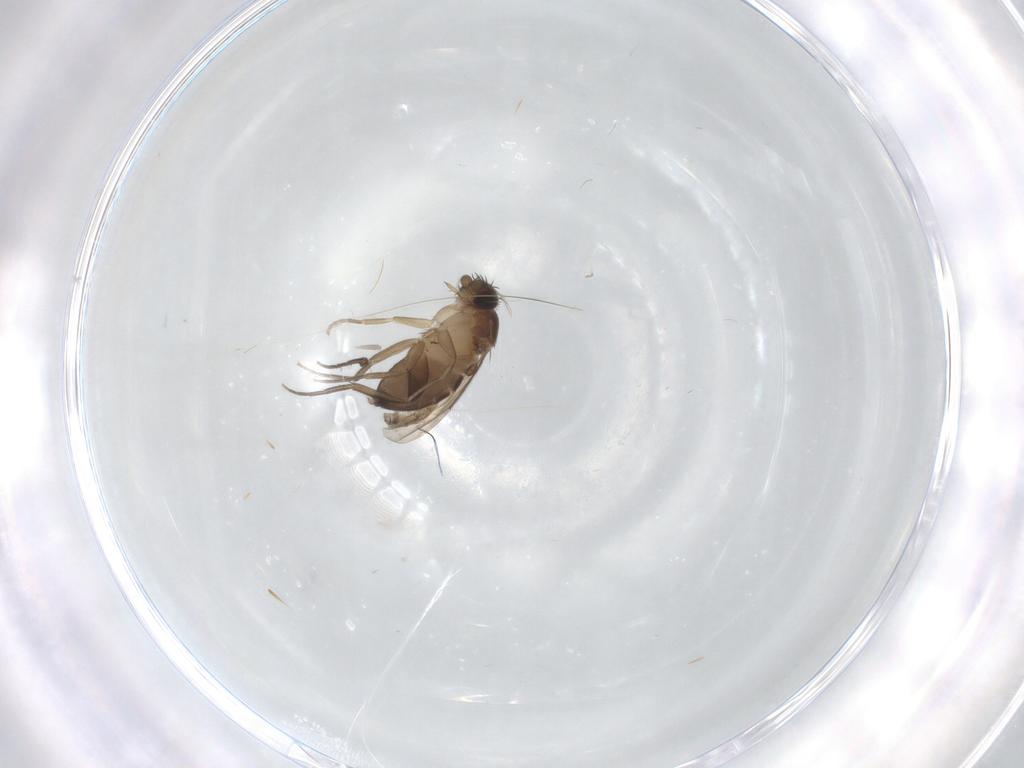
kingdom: Animalia
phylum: Arthropoda
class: Insecta
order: Diptera
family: Phoridae
